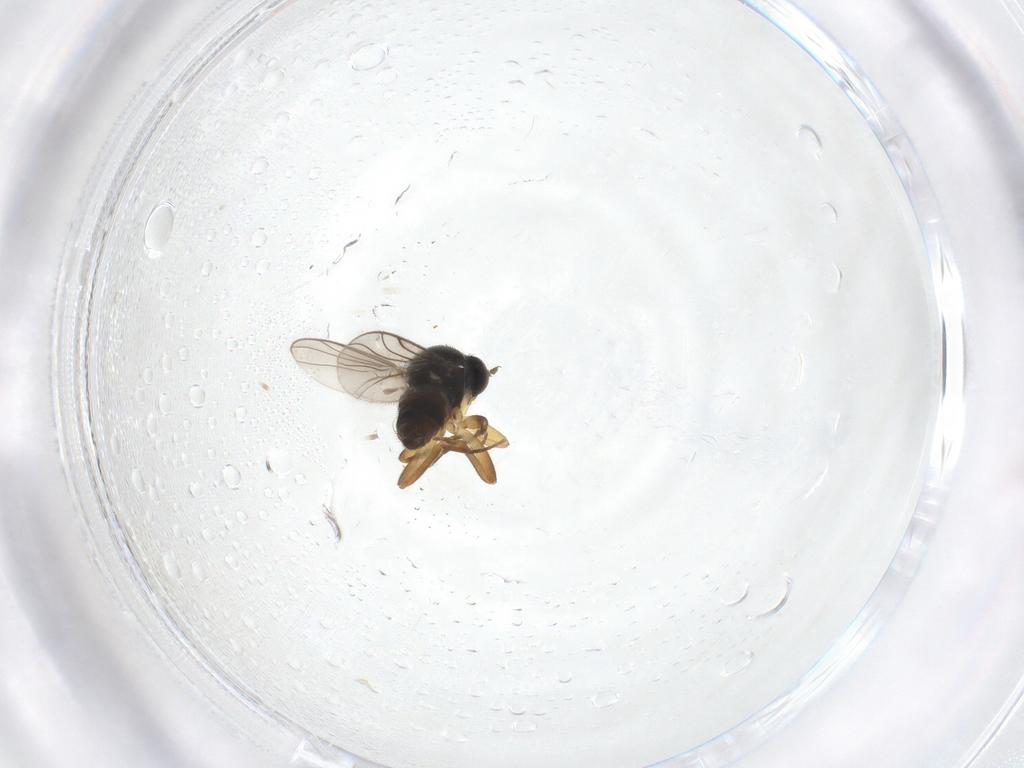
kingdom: Animalia
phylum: Arthropoda
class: Insecta
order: Diptera
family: Hybotidae
